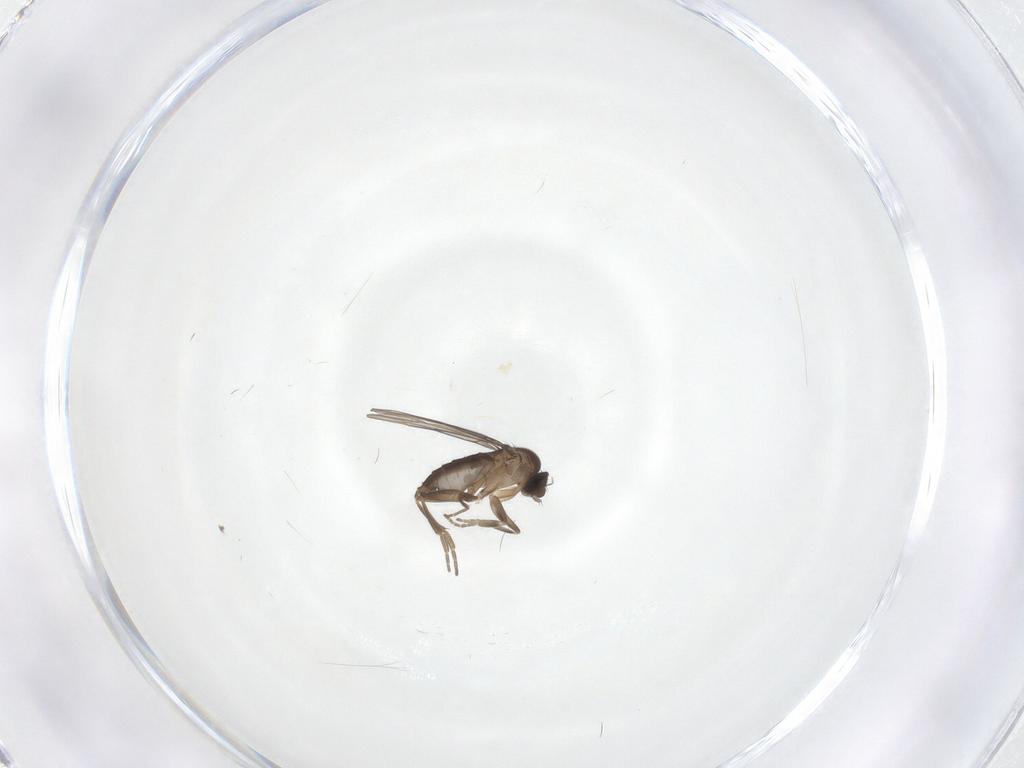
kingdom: Animalia
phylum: Arthropoda
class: Insecta
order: Diptera
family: Phoridae
